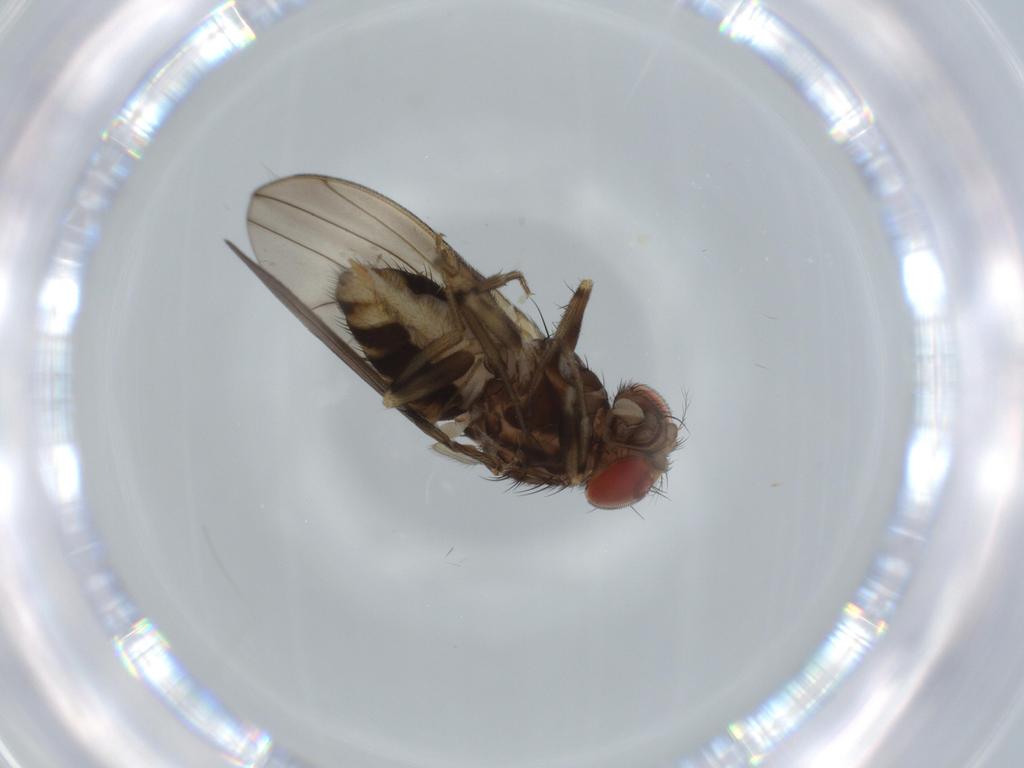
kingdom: Animalia
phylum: Arthropoda
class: Insecta
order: Diptera
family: Drosophilidae
